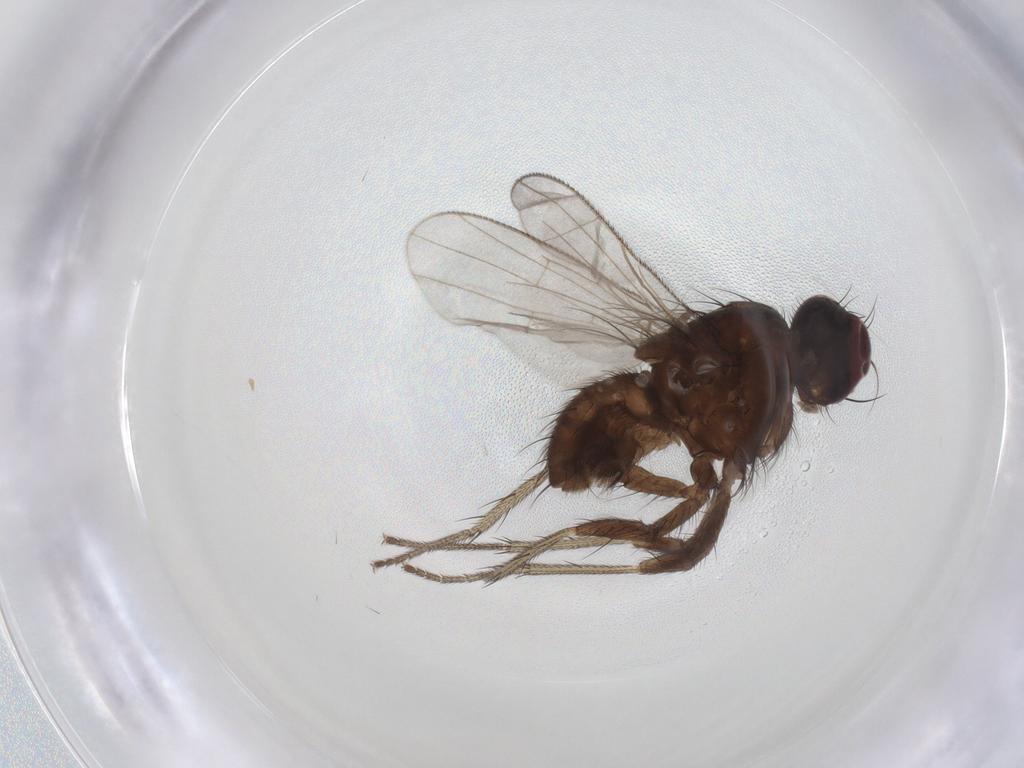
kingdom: Animalia
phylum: Arthropoda
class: Insecta
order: Diptera
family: Muscidae
